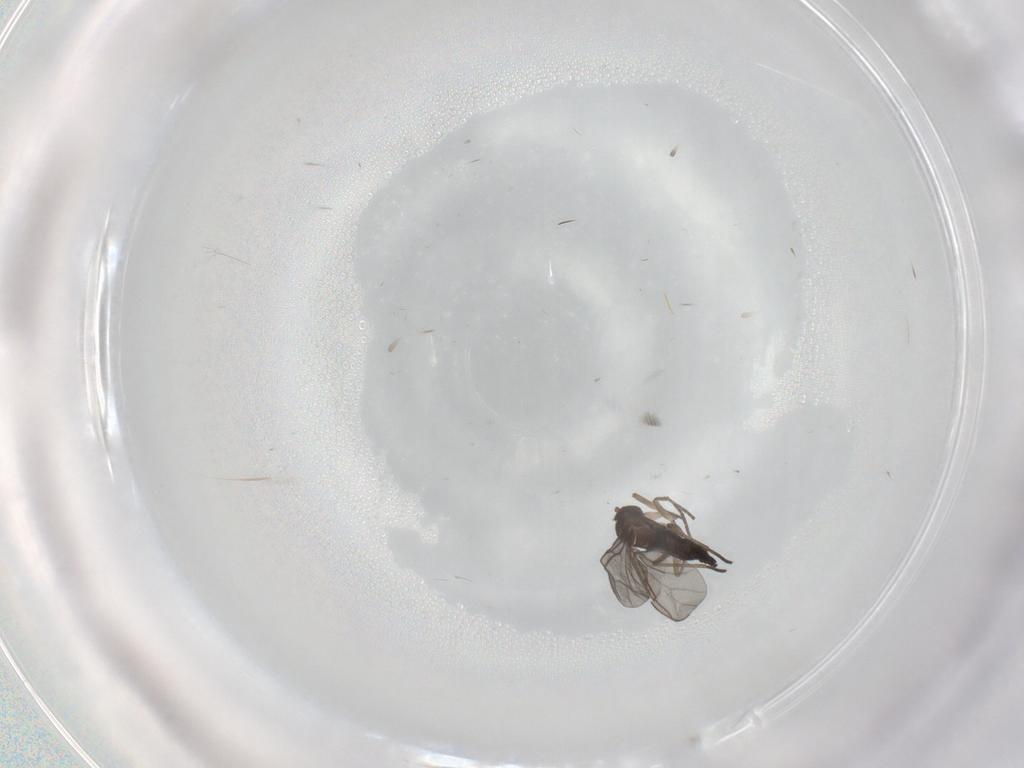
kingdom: Animalia
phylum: Arthropoda
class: Insecta
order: Diptera
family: Sciaridae
